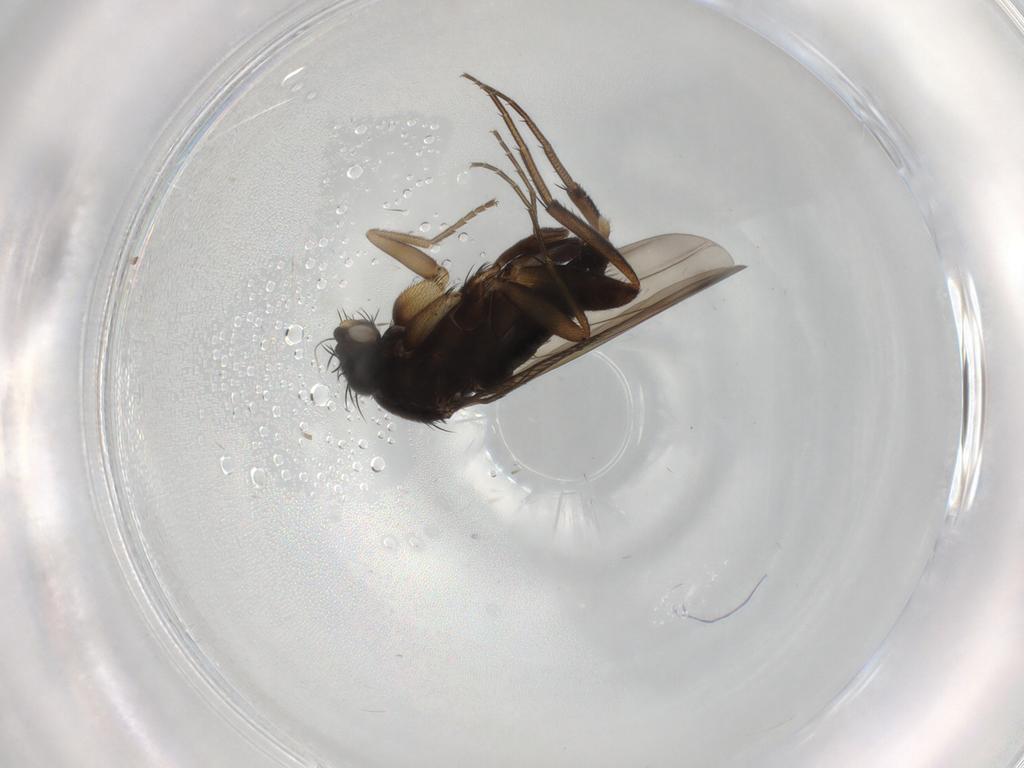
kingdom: Animalia
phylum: Arthropoda
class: Insecta
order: Diptera
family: Phoridae
